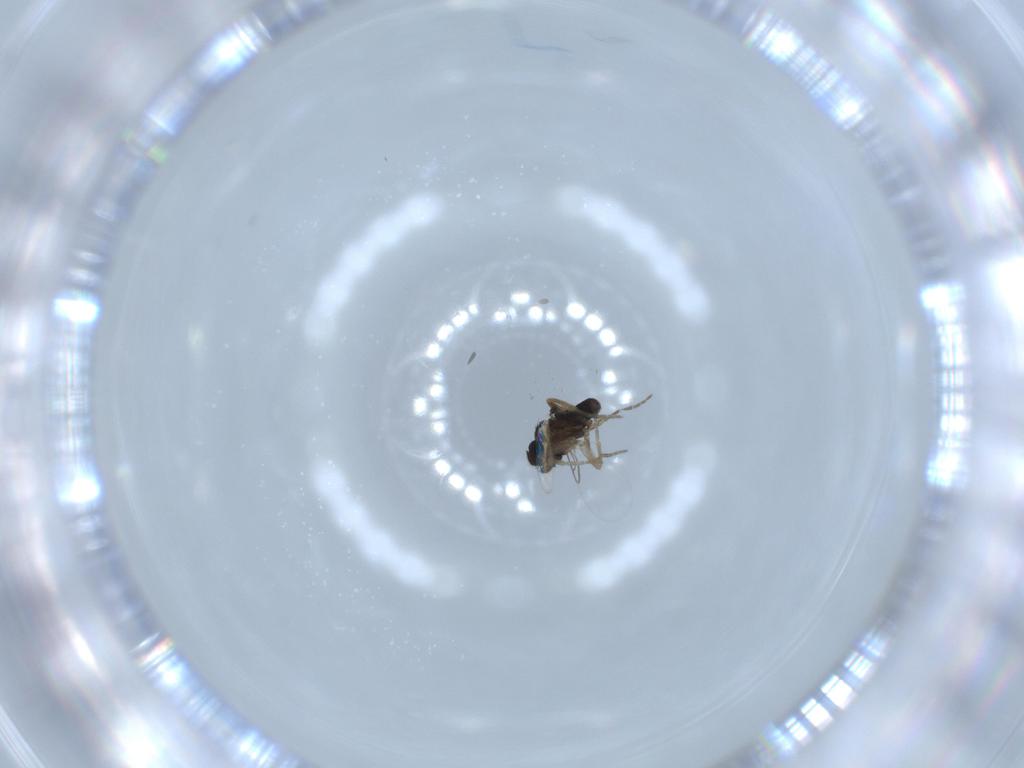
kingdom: Animalia
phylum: Arthropoda
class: Insecta
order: Diptera
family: Phoridae
